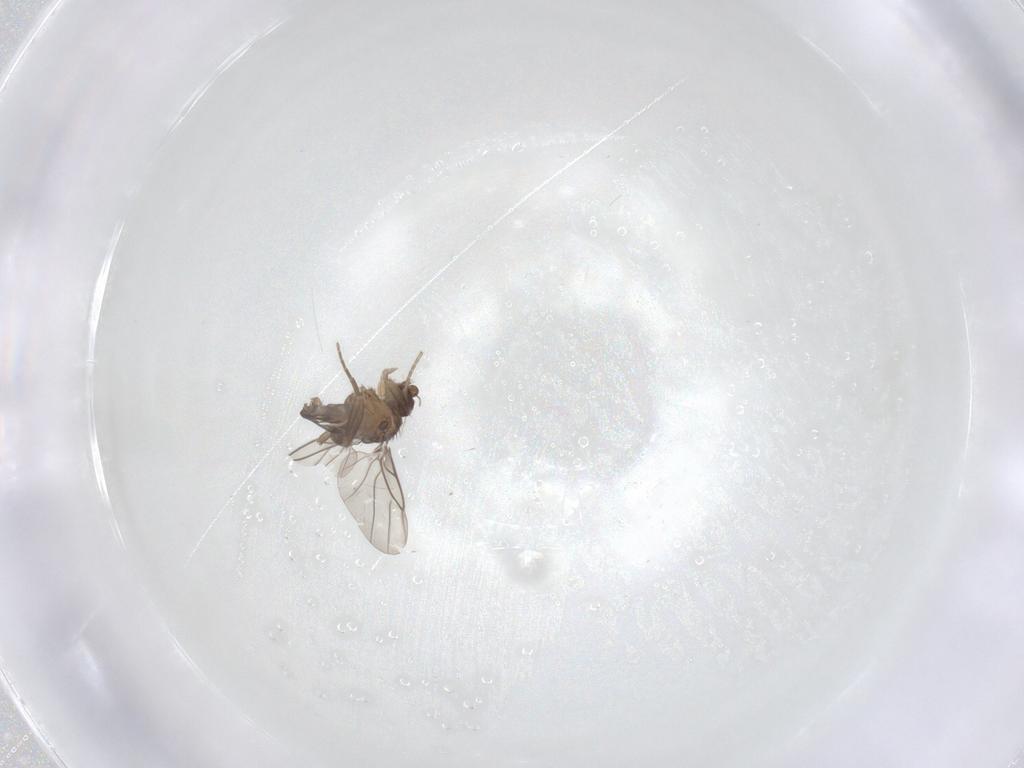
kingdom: Animalia
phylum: Arthropoda
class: Insecta
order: Diptera
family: Phoridae
